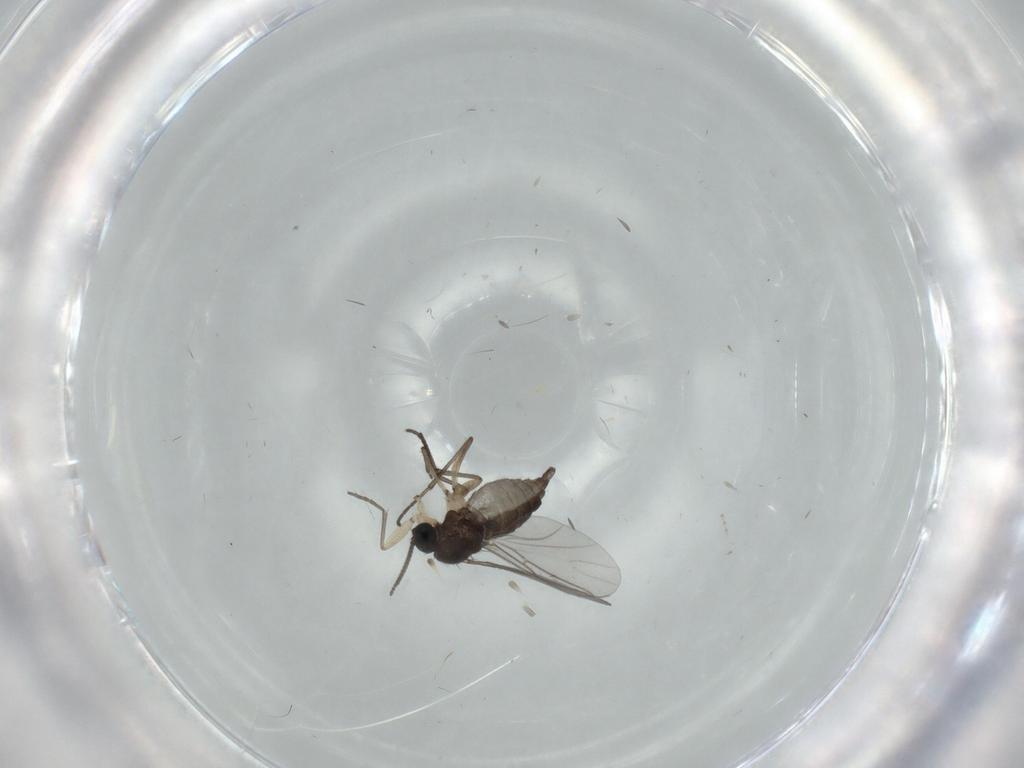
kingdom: Animalia
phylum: Arthropoda
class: Insecta
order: Diptera
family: Sciaridae
